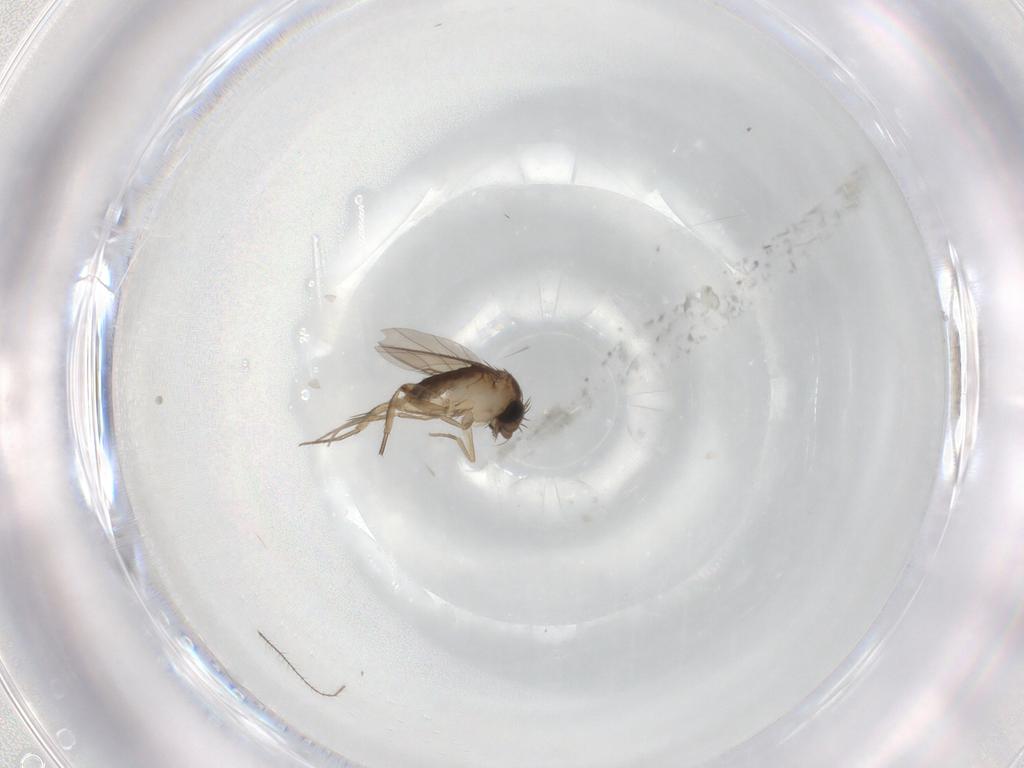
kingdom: Animalia
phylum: Arthropoda
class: Insecta
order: Diptera
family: Phoridae
